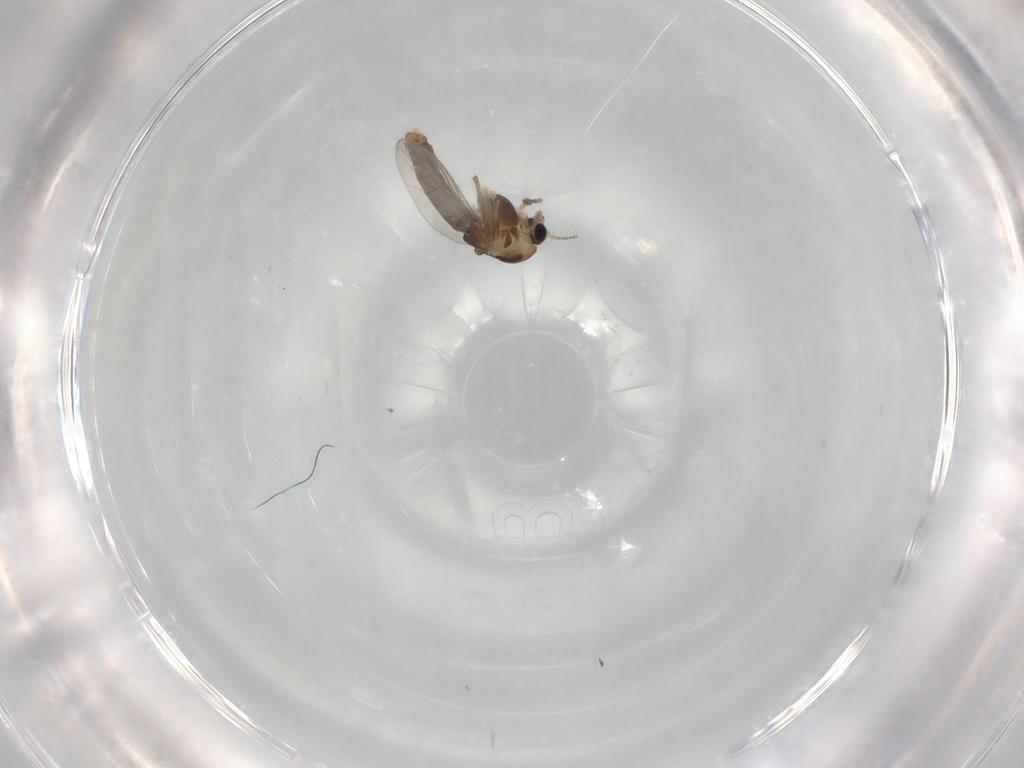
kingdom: Animalia
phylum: Arthropoda
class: Insecta
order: Diptera
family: Chironomidae
